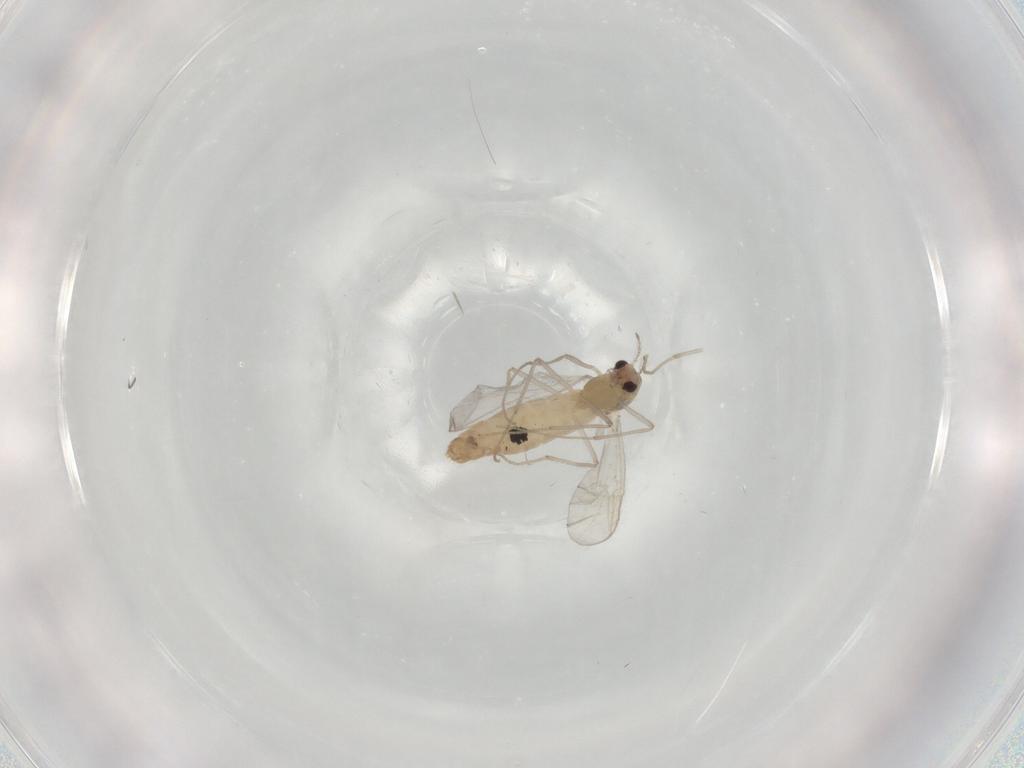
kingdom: Animalia
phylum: Arthropoda
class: Insecta
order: Diptera
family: Chironomidae
